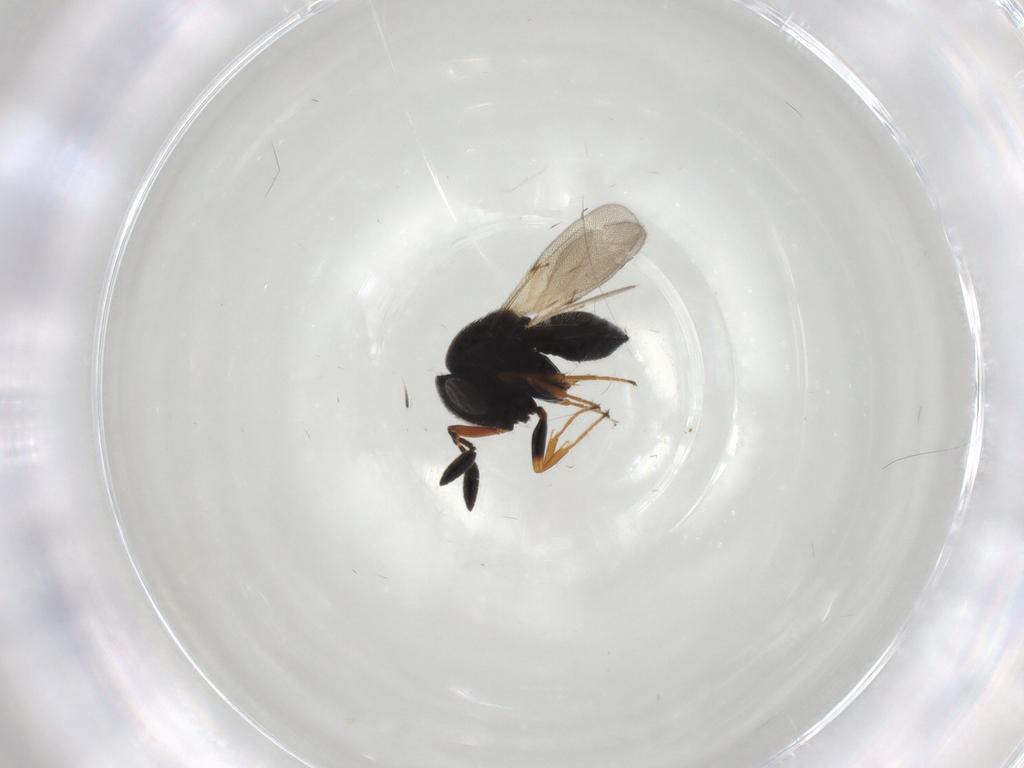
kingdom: Animalia
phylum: Arthropoda
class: Insecta
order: Hymenoptera
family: Scelionidae
